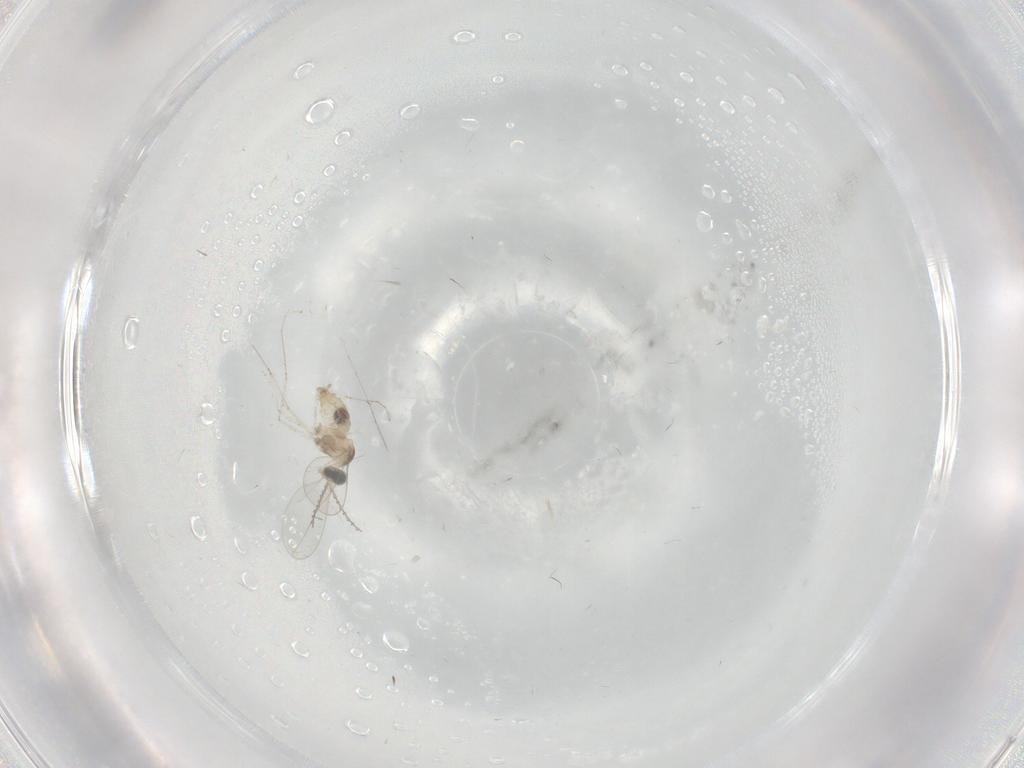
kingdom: Animalia
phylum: Arthropoda
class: Insecta
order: Diptera
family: Cecidomyiidae
